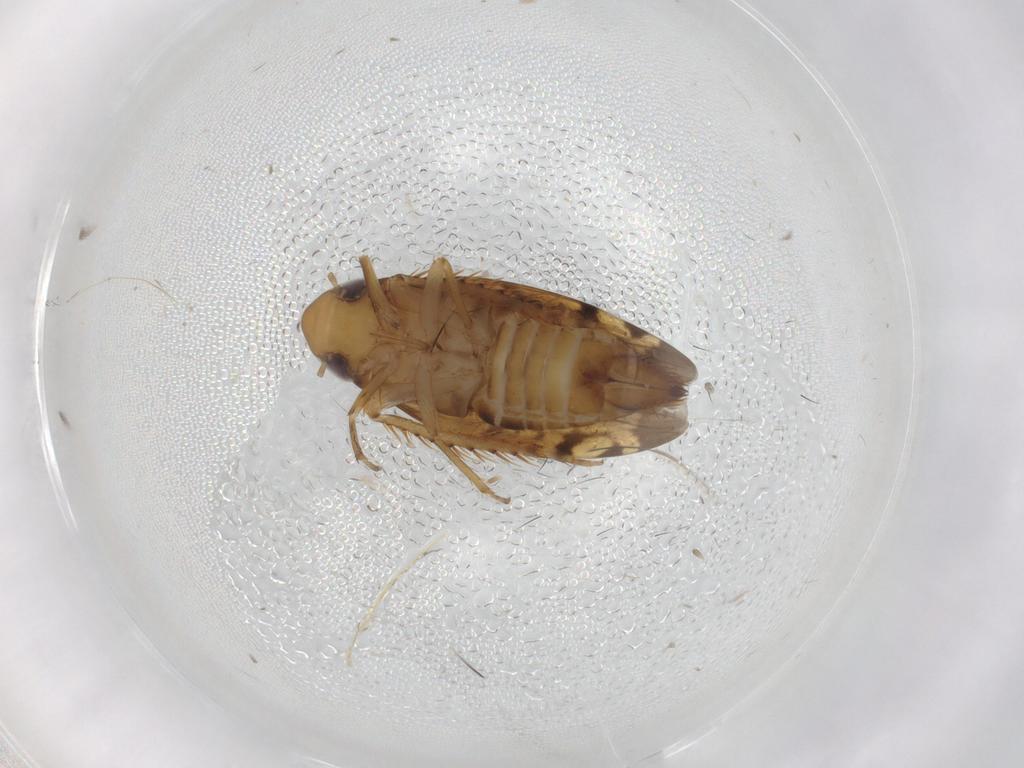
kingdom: Animalia
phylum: Arthropoda
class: Insecta
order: Hemiptera
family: Cicadellidae
